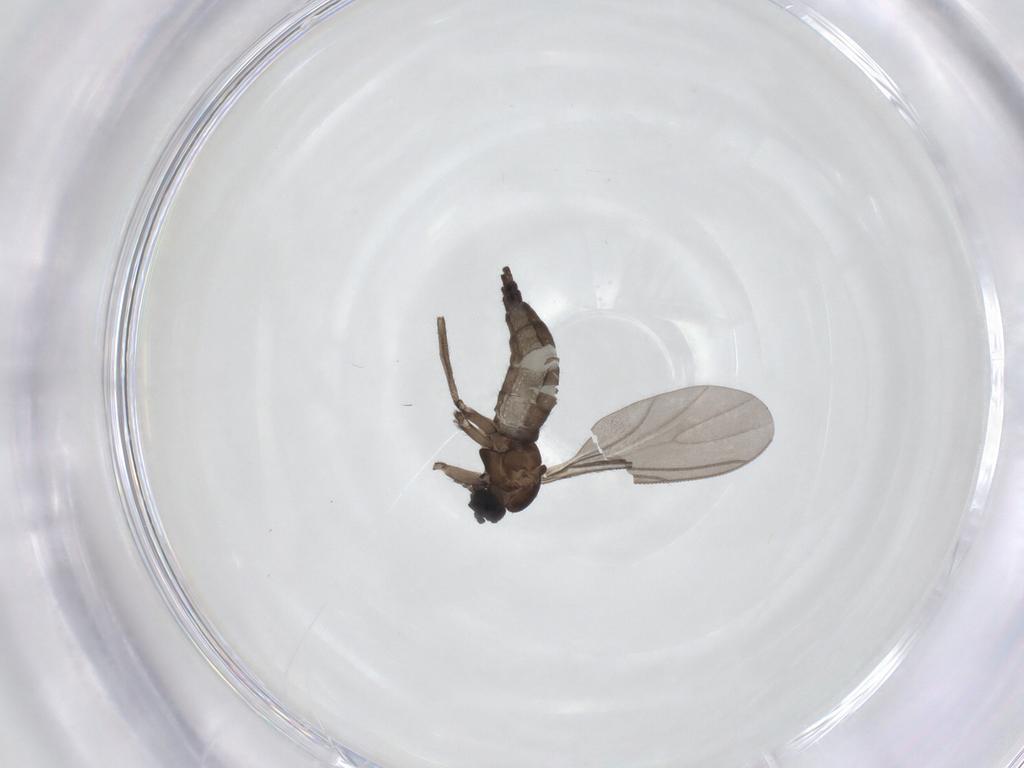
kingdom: Animalia
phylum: Arthropoda
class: Insecta
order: Diptera
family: Sciaridae
